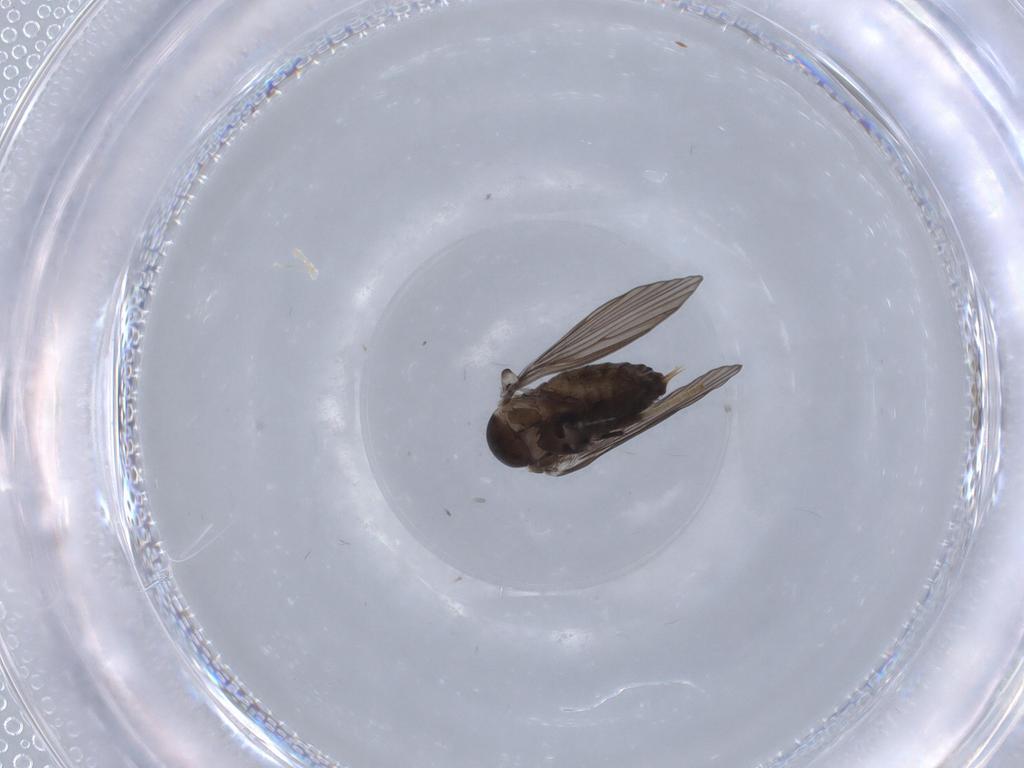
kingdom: Animalia
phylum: Arthropoda
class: Insecta
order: Diptera
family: Psychodidae
